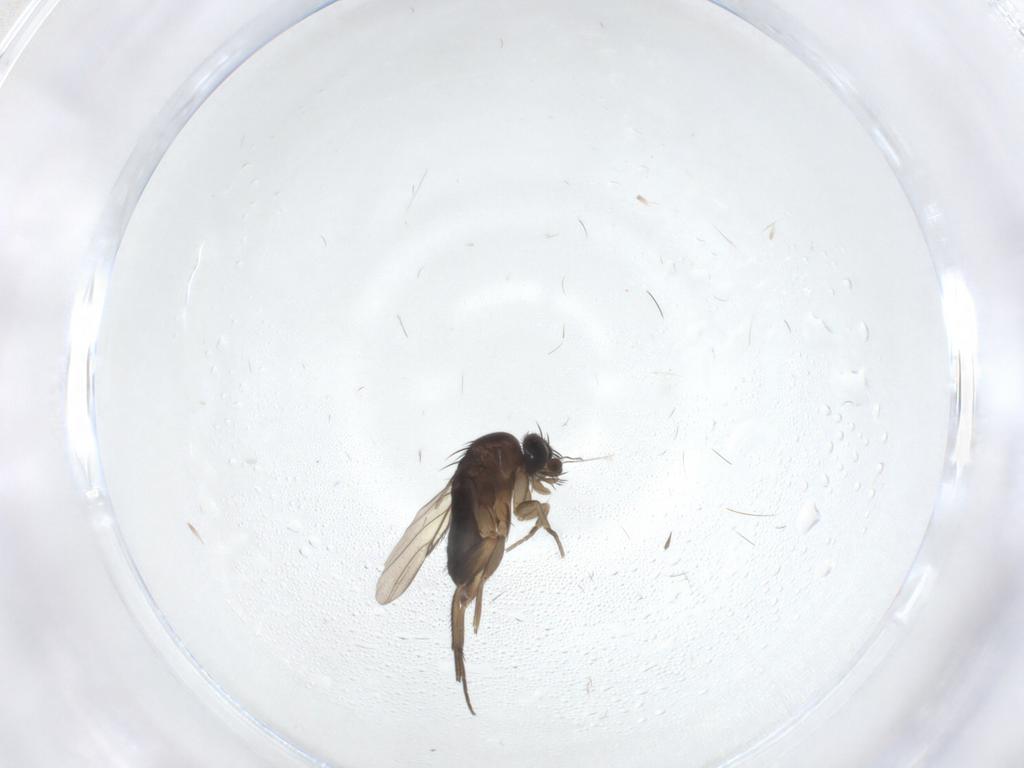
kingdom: Animalia
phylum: Arthropoda
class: Insecta
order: Diptera
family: Phoridae
